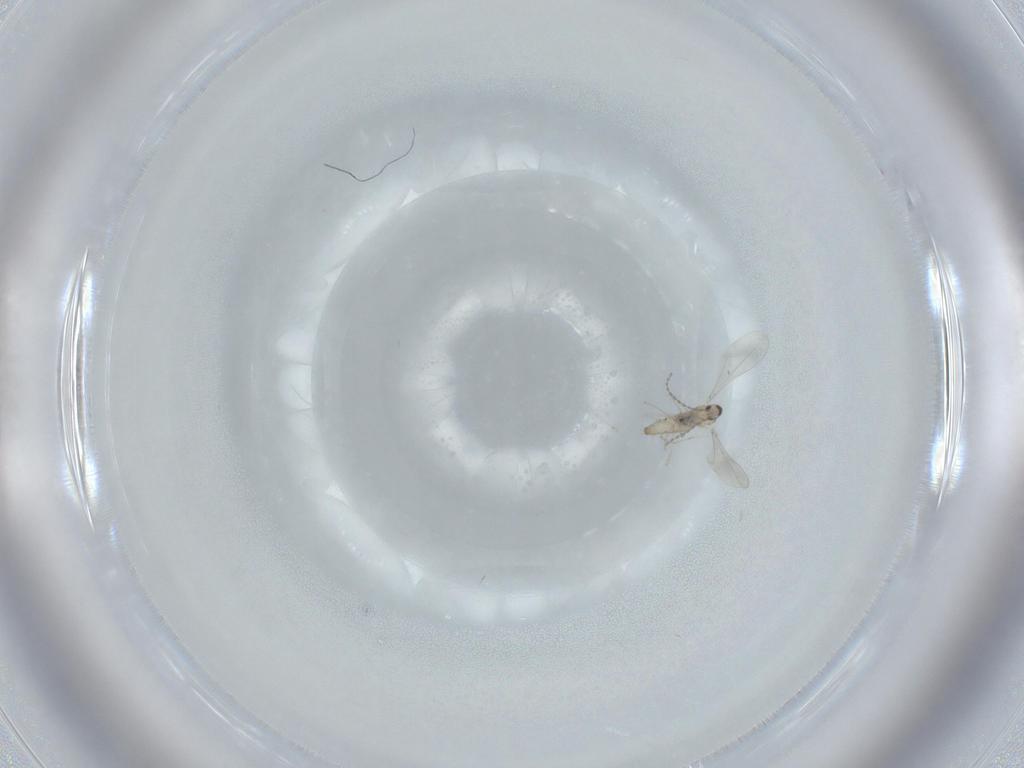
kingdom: Animalia
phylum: Arthropoda
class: Insecta
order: Diptera
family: Cecidomyiidae
